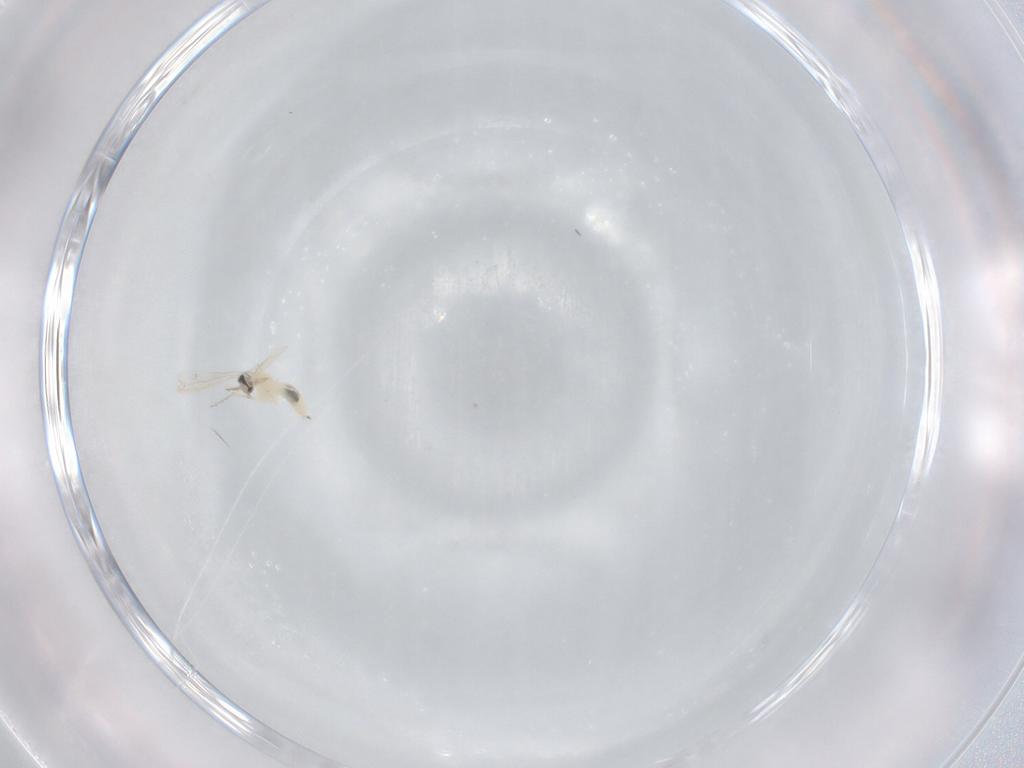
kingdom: Animalia
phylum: Arthropoda
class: Insecta
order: Diptera
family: Cecidomyiidae
